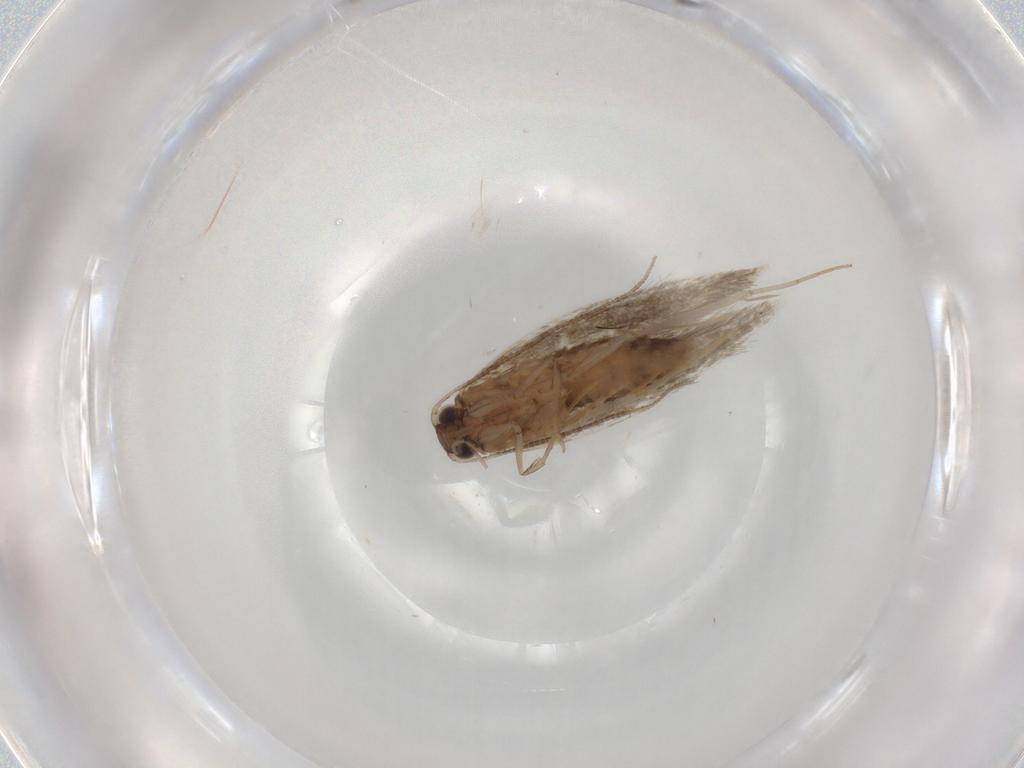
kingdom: Animalia
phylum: Arthropoda
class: Insecta
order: Lepidoptera
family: Tineidae
